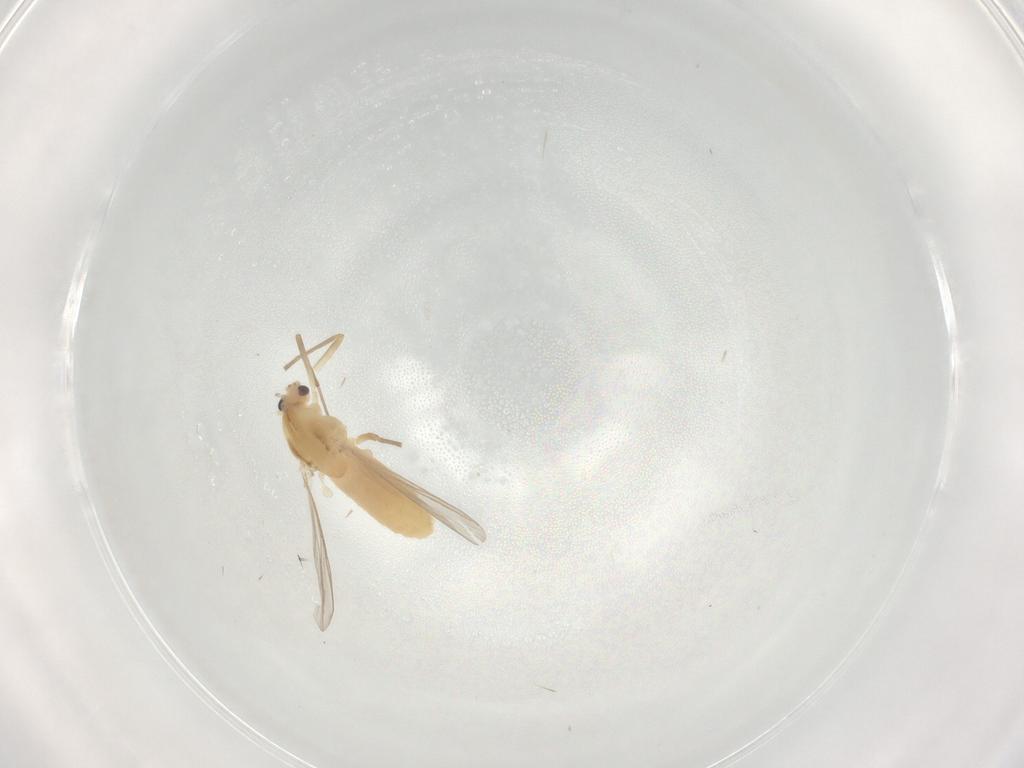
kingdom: Animalia
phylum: Arthropoda
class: Insecta
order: Diptera
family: Chironomidae
